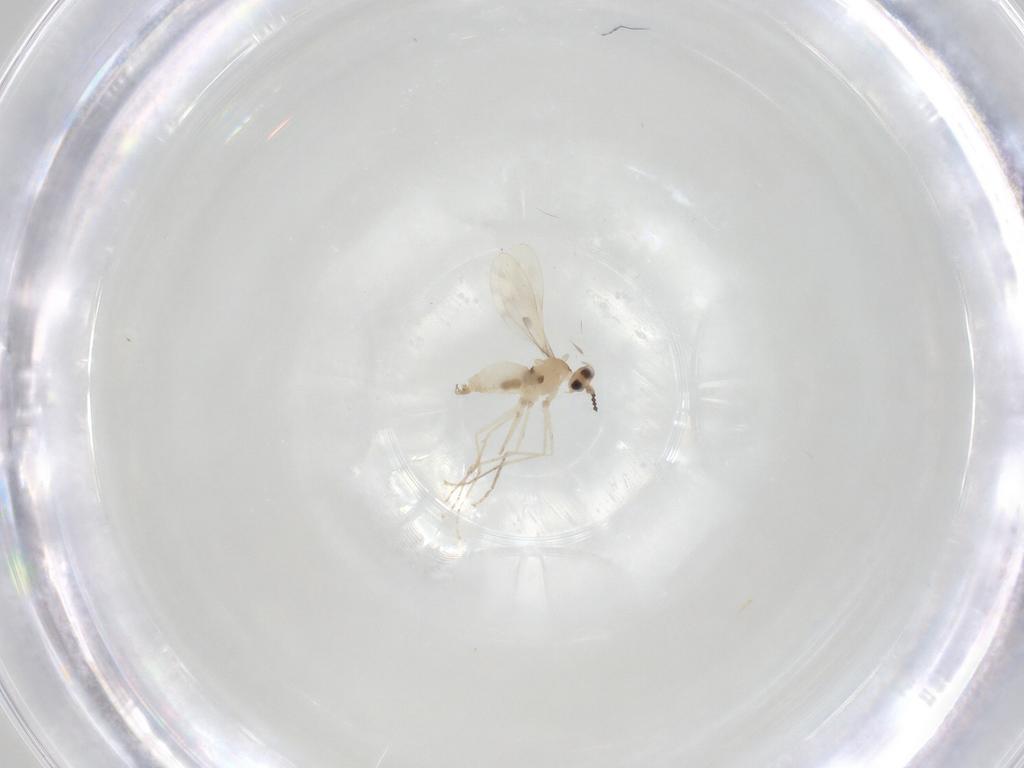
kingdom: Animalia
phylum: Arthropoda
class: Insecta
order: Diptera
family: Cecidomyiidae
